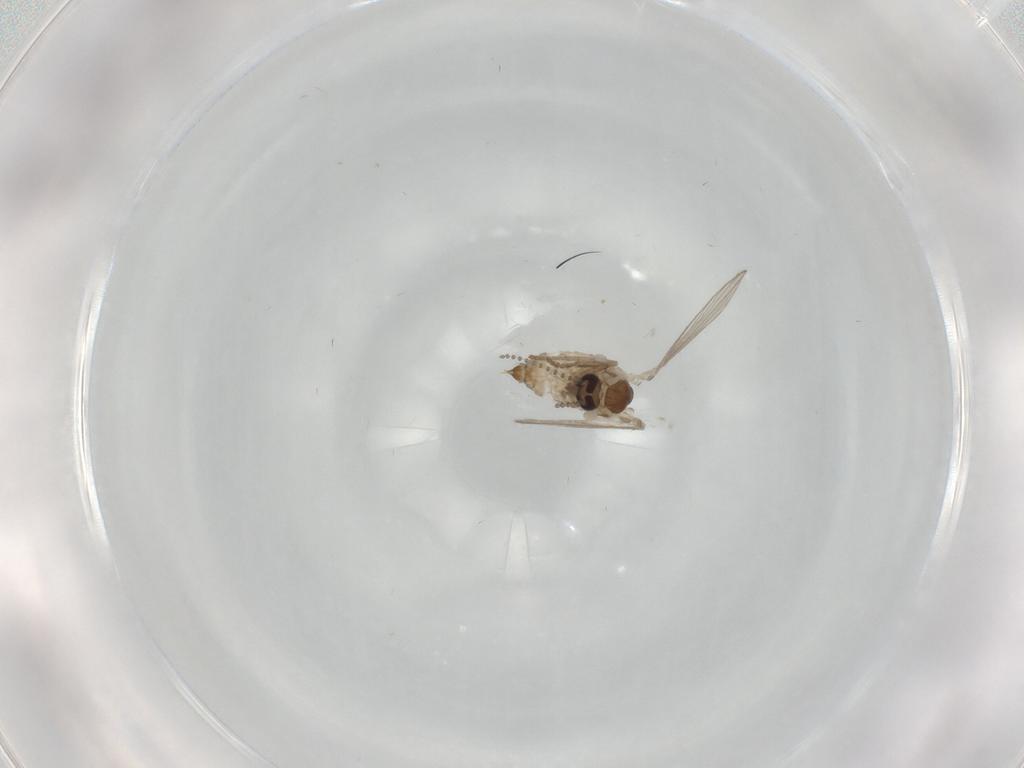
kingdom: Animalia
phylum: Arthropoda
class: Insecta
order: Diptera
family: Psychodidae
